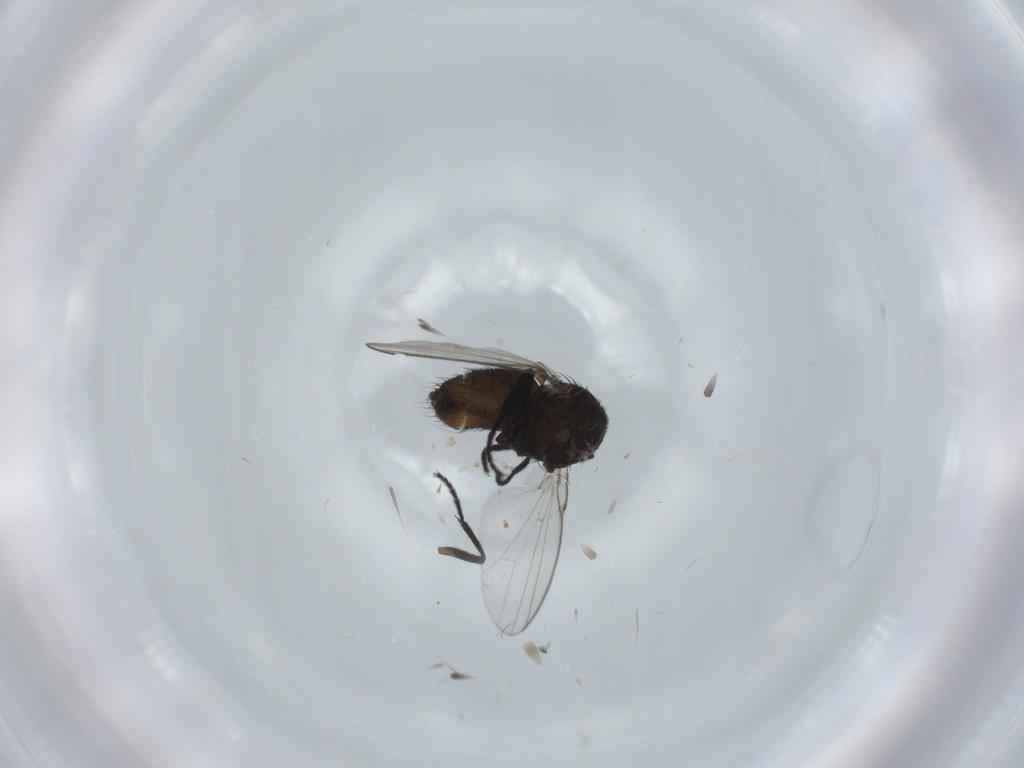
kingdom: Animalia
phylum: Arthropoda
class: Insecta
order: Diptera
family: Milichiidae
